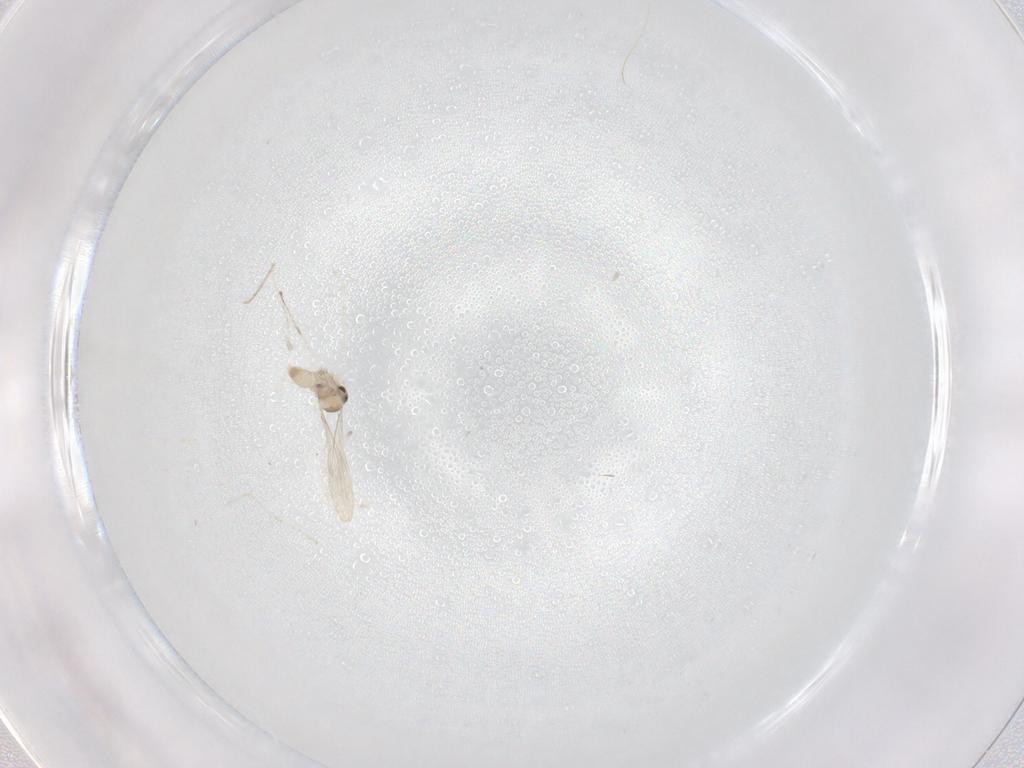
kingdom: Animalia
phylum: Arthropoda
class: Insecta
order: Diptera
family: Cecidomyiidae
